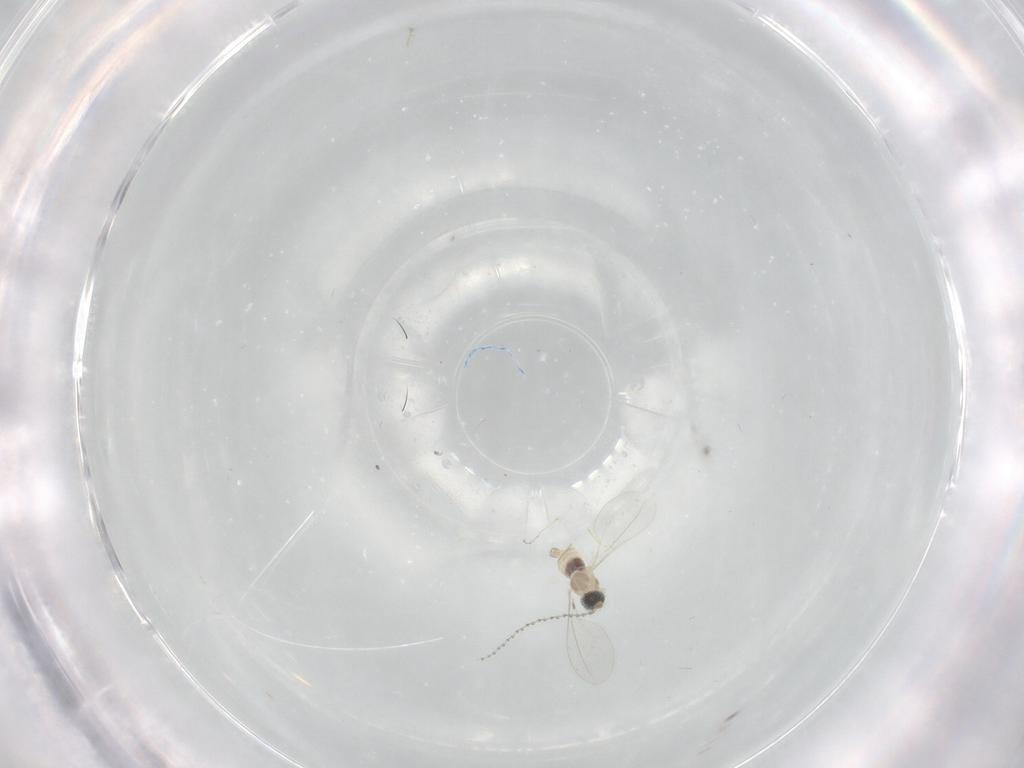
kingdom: Animalia
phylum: Arthropoda
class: Insecta
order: Diptera
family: Cecidomyiidae
